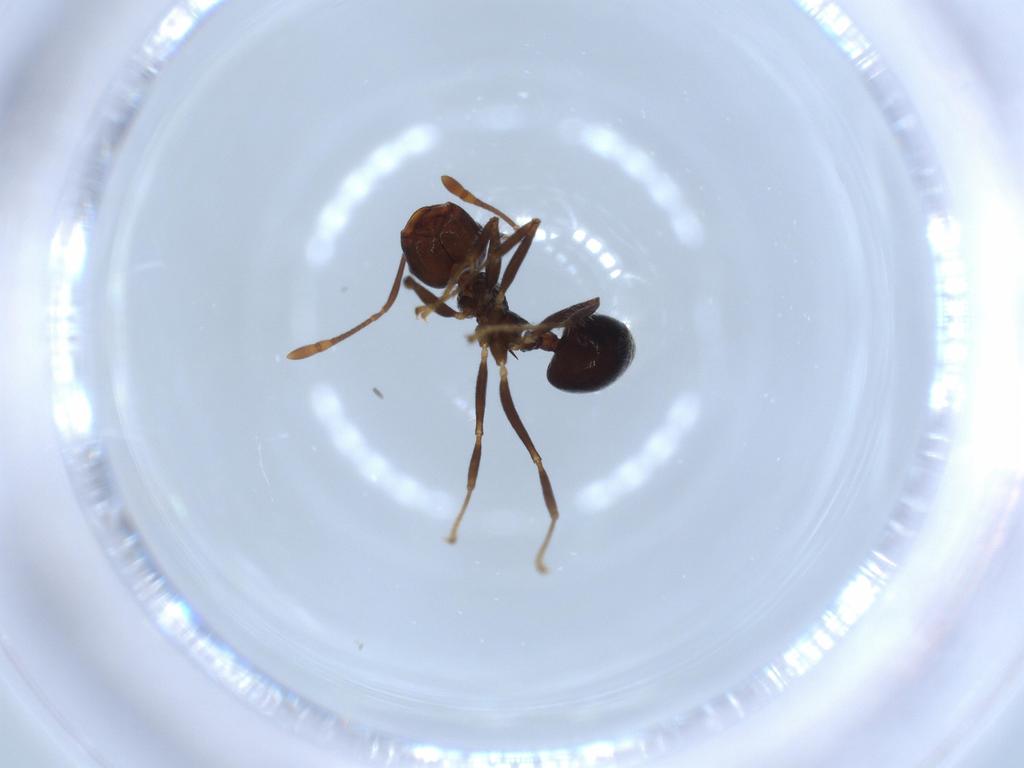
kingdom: Animalia
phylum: Arthropoda
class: Insecta
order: Hymenoptera
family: Formicidae
